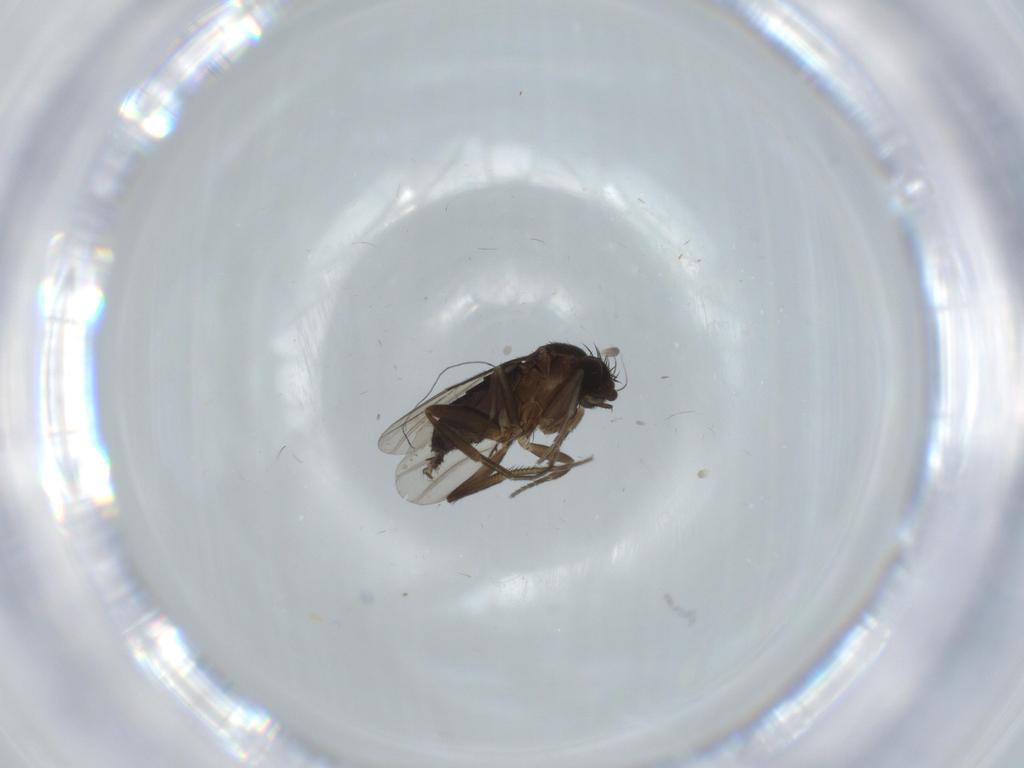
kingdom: Animalia
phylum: Arthropoda
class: Insecta
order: Diptera
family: Phoridae
